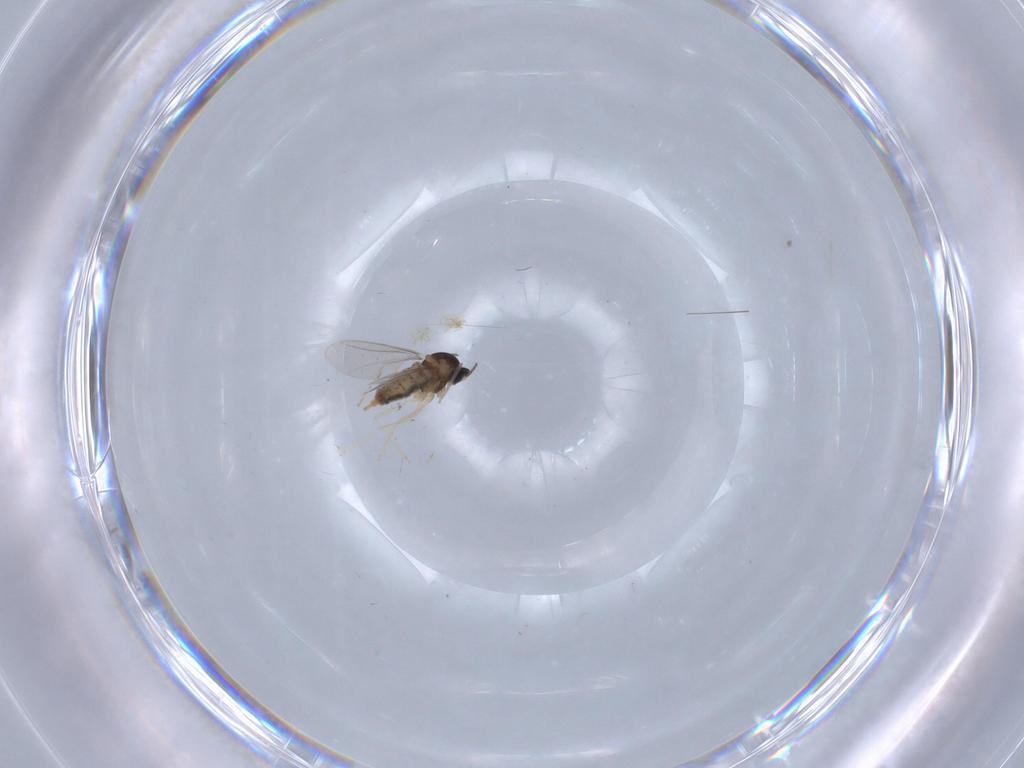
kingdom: Animalia
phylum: Arthropoda
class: Insecta
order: Diptera
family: Cecidomyiidae
